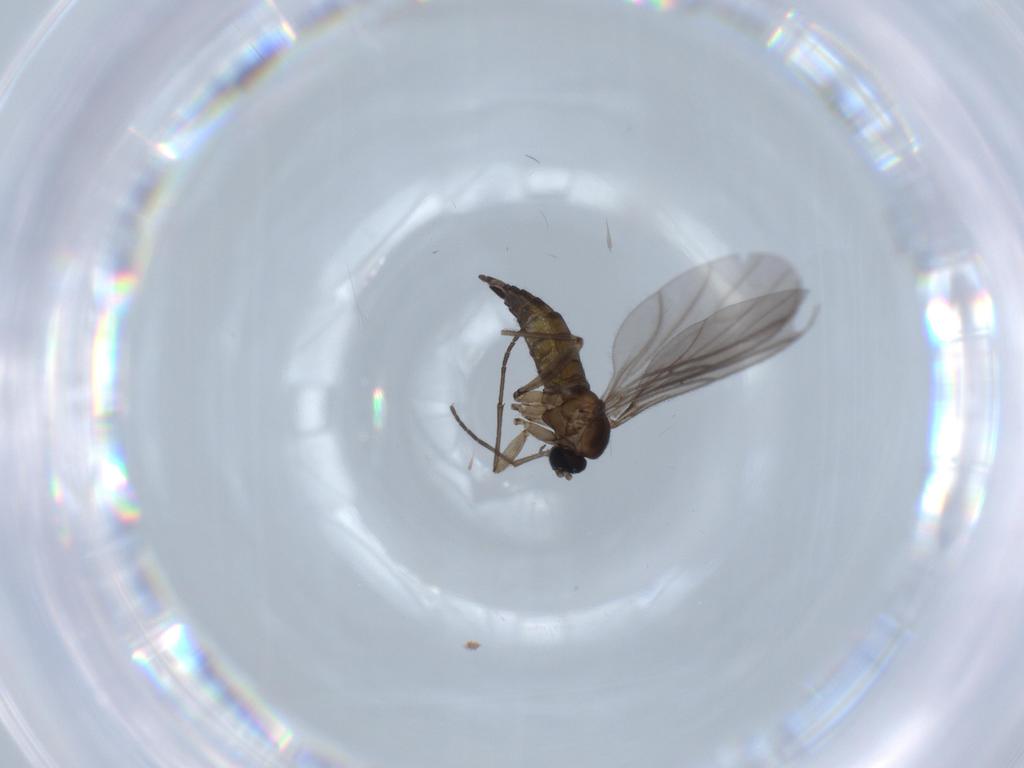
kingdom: Animalia
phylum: Arthropoda
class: Insecta
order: Diptera
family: Sciaridae
